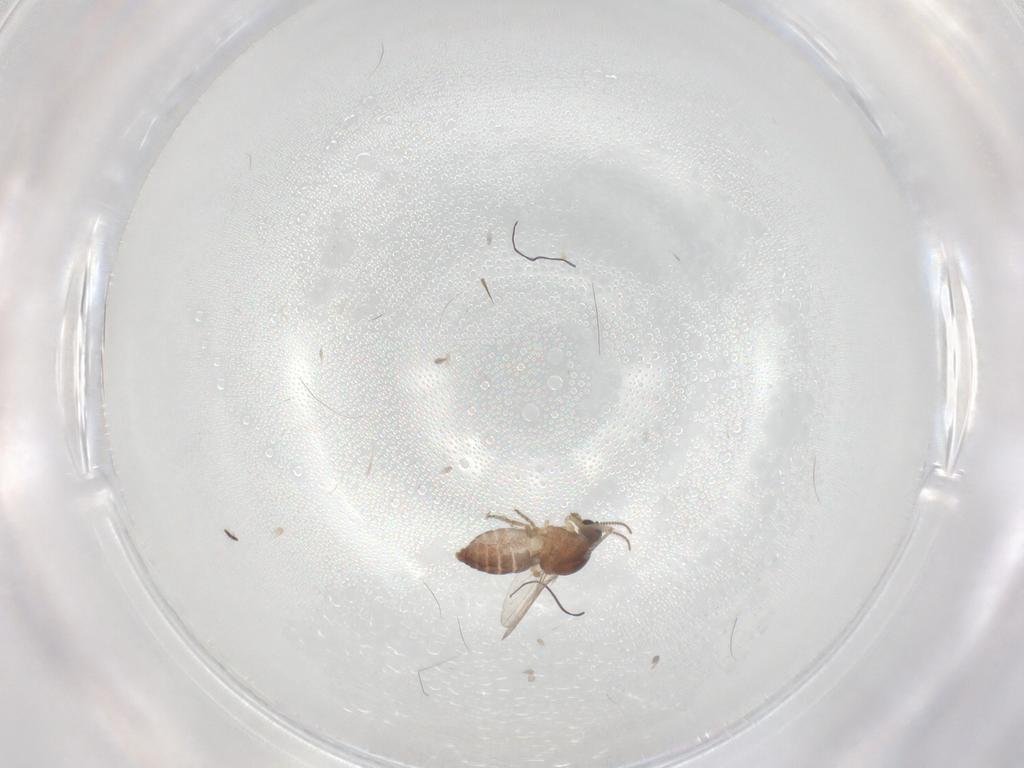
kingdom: Animalia
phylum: Arthropoda
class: Insecta
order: Diptera
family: Ceratopogonidae
